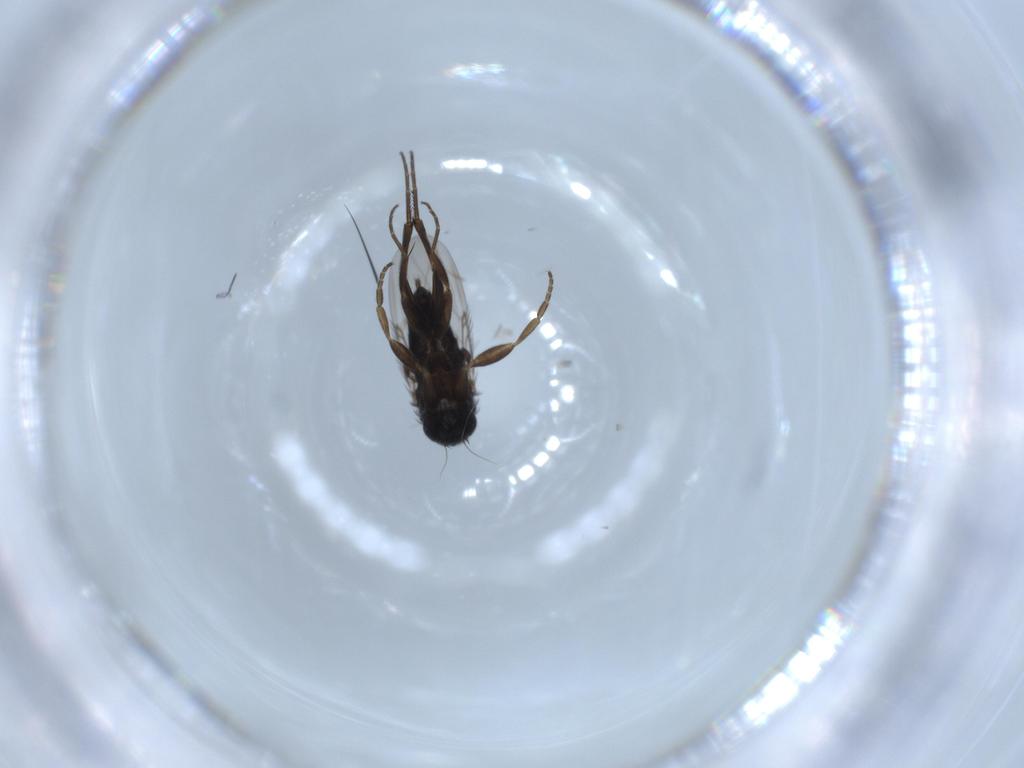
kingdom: Animalia
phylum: Arthropoda
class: Insecta
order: Diptera
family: Phoridae
